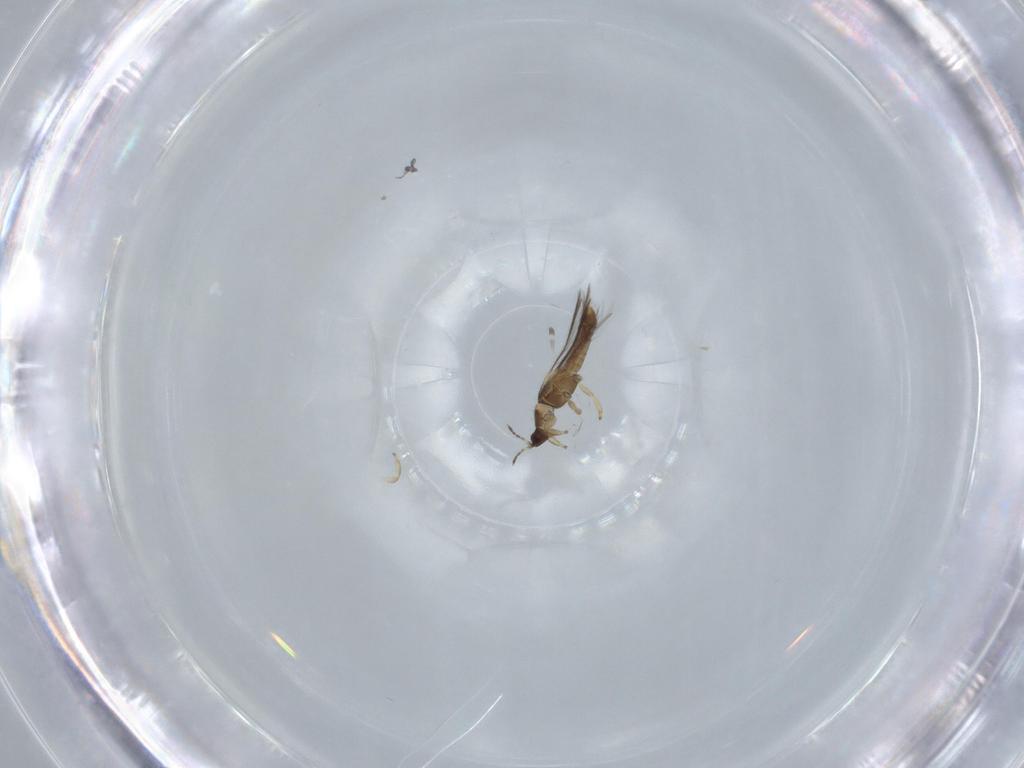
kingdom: Animalia
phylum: Arthropoda
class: Insecta
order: Thysanoptera
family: Thripidae
